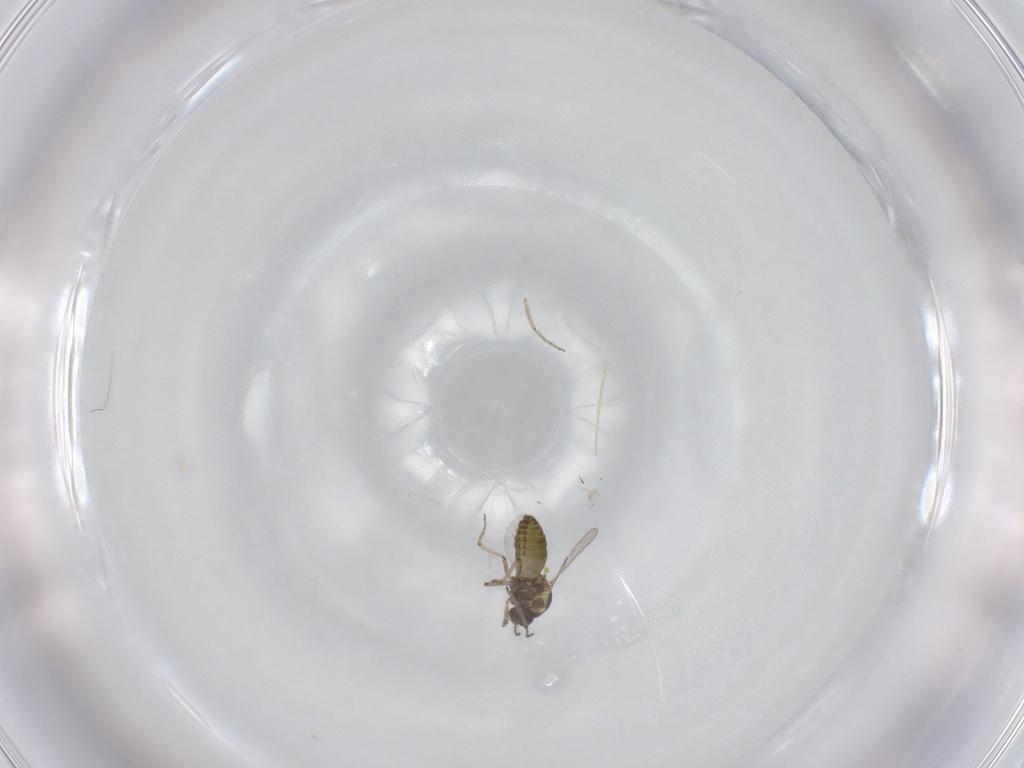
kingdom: Animalia
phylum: Arthropoda
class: Insecta
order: Diptera
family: Ceratopogonidae
